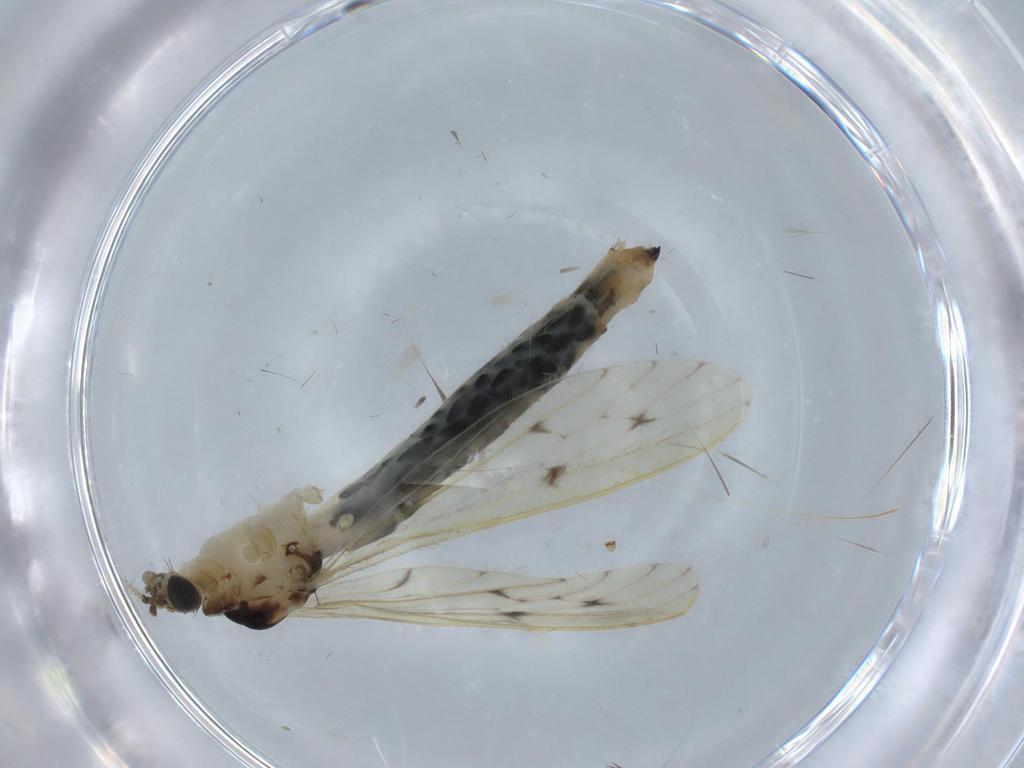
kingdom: Animalia
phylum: Arthropoda
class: Insecta
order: Diptera
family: Limoniidae
